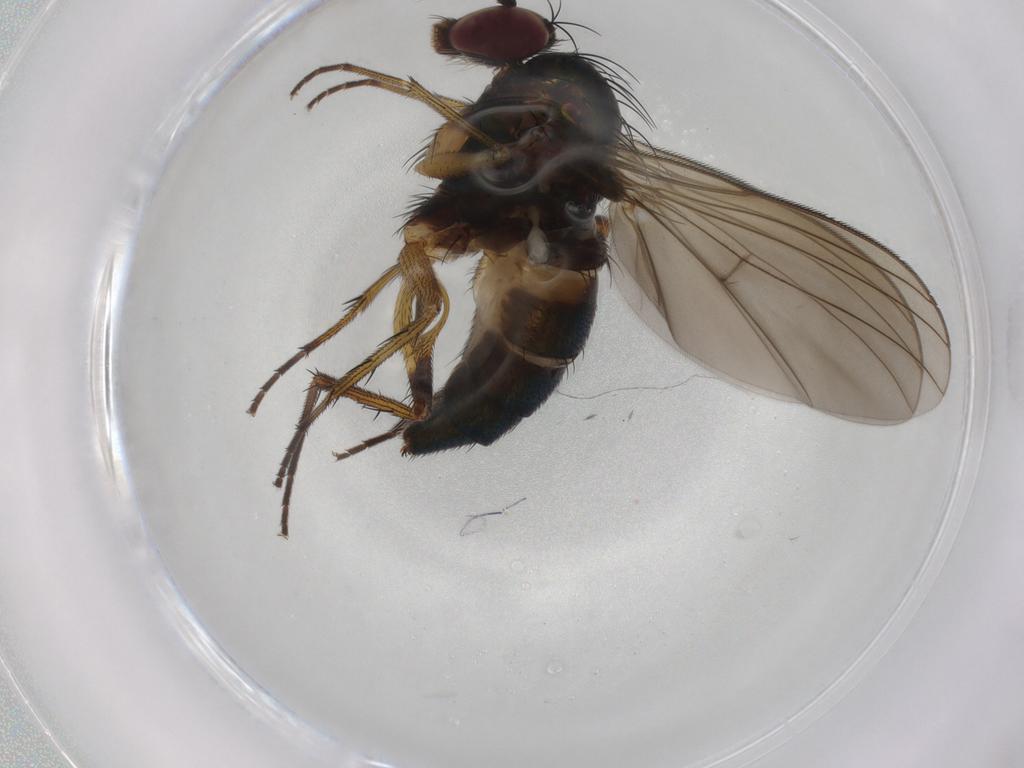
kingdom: Animalia
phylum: Arthropoda
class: Insecta
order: Diptera
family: Dolichopodidae
